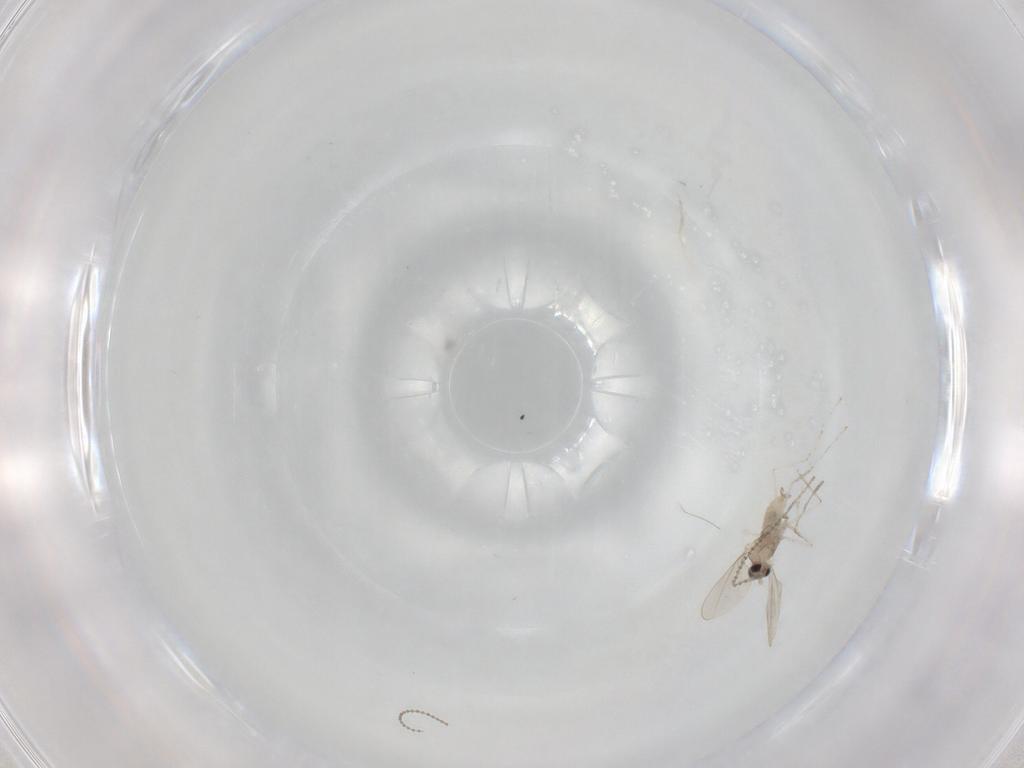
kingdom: Animalia
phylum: Arthropoda
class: Insecta
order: Diptera
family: Cecidomyiidae
